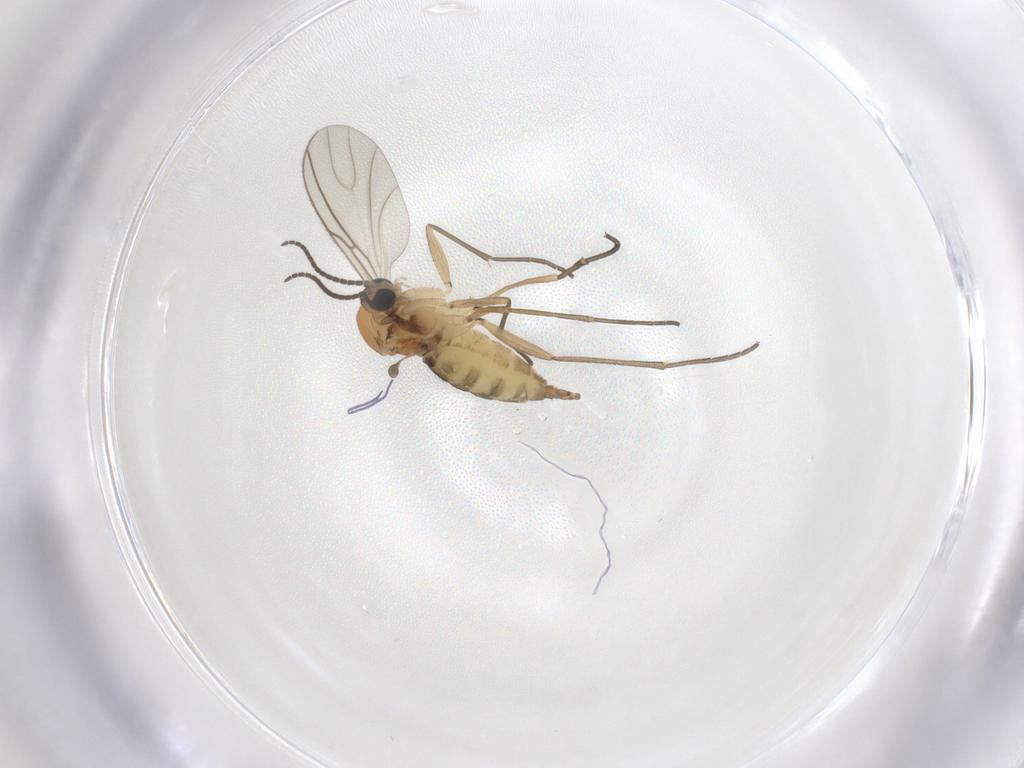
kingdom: Animalia
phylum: Arthropoda
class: Insecta
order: Diptera
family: Sciaridae
